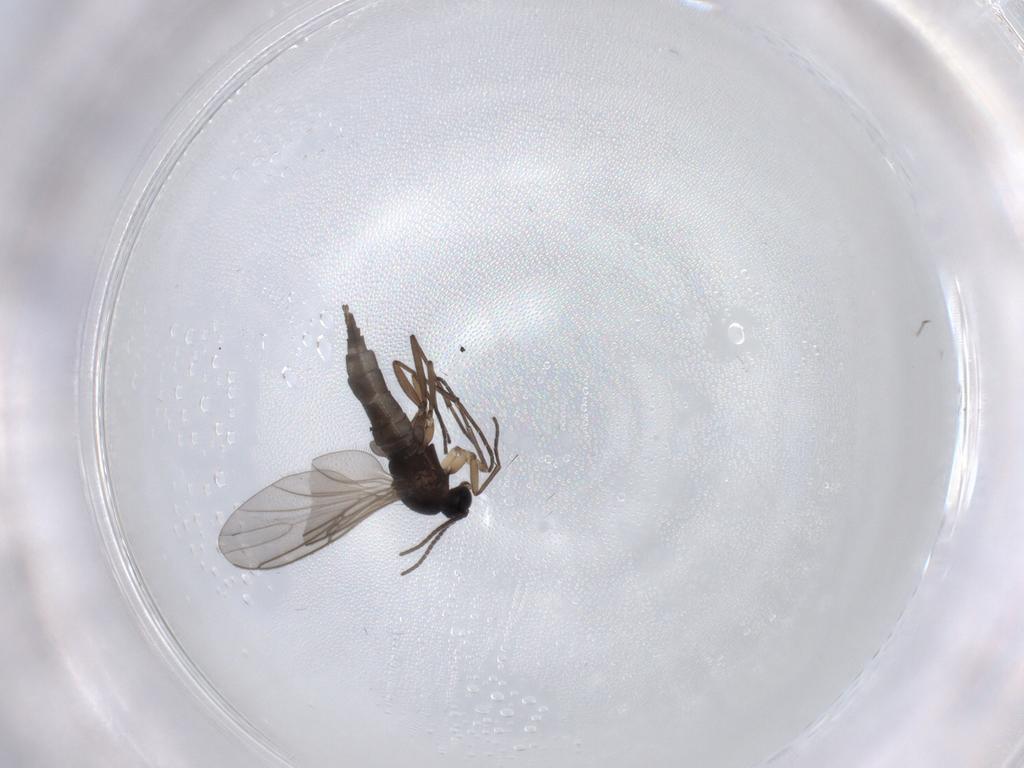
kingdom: Animalia
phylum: Arthropoda
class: Insecta
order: Diptera
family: Sciaridae
